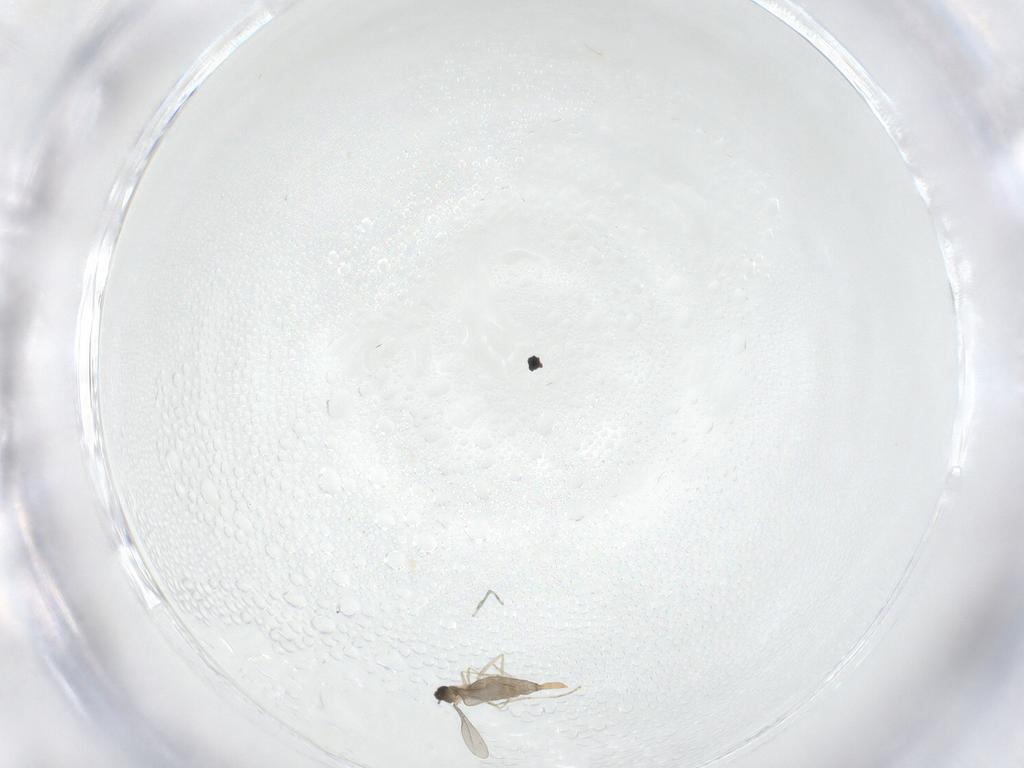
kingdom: Animalia
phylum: Arthropoda
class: Insecta
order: Diptera
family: Cecidomyiidae
